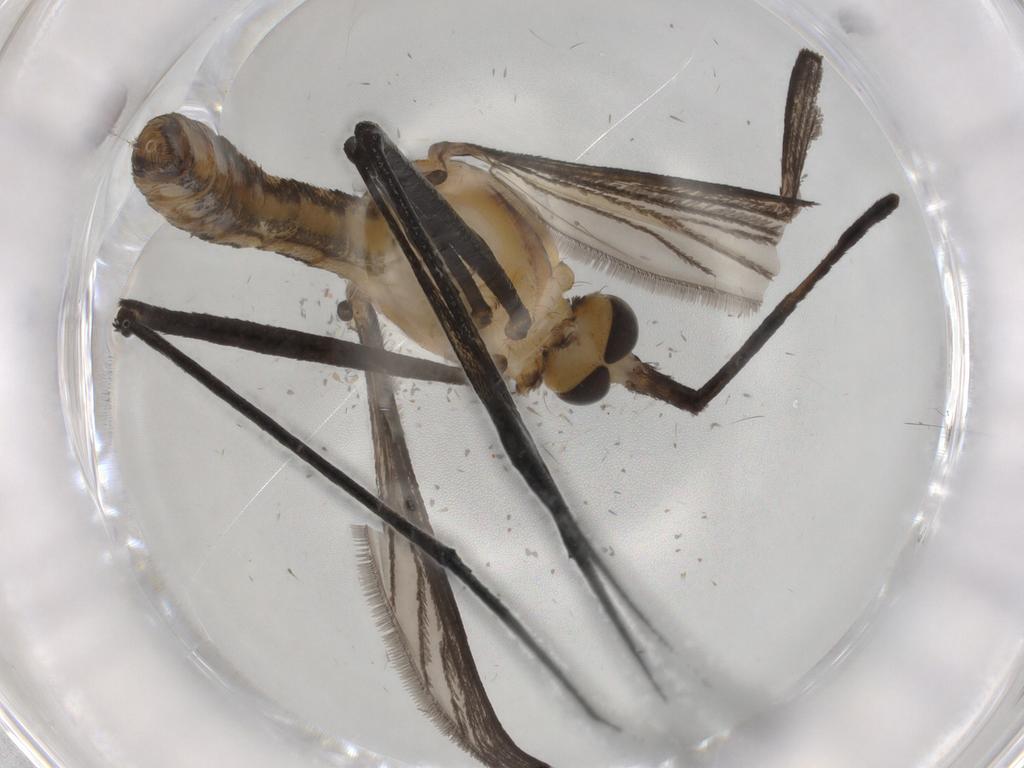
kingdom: Animalia
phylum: Arthropoda
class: Insecta
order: Diptera
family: Culicidae
